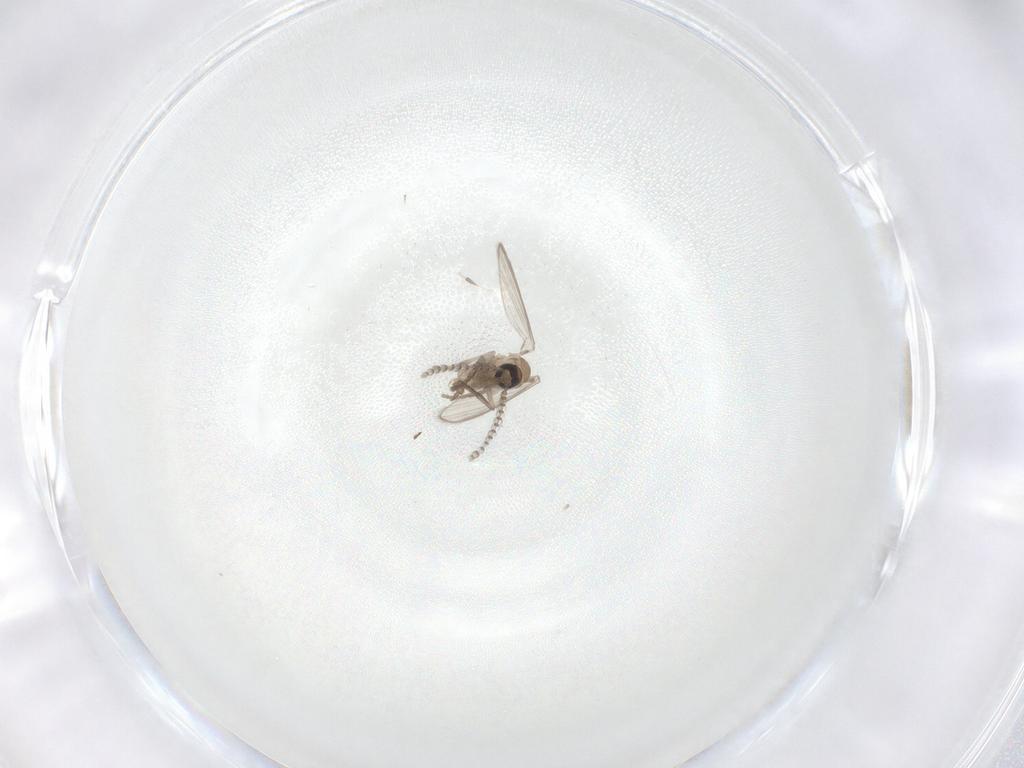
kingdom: Animalia
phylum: Arthropoda
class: Insecta
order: Diptera
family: Psychodidae
